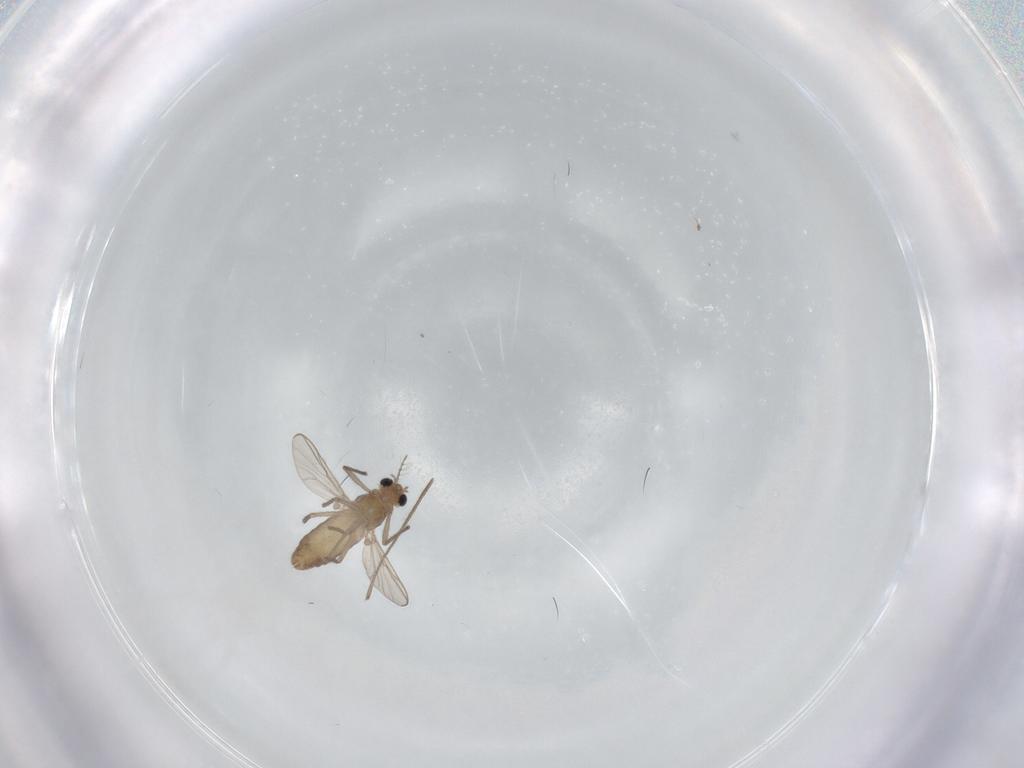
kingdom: Animalia
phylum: Arthropoda
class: Insecta
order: Diptera
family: Chironomidae
